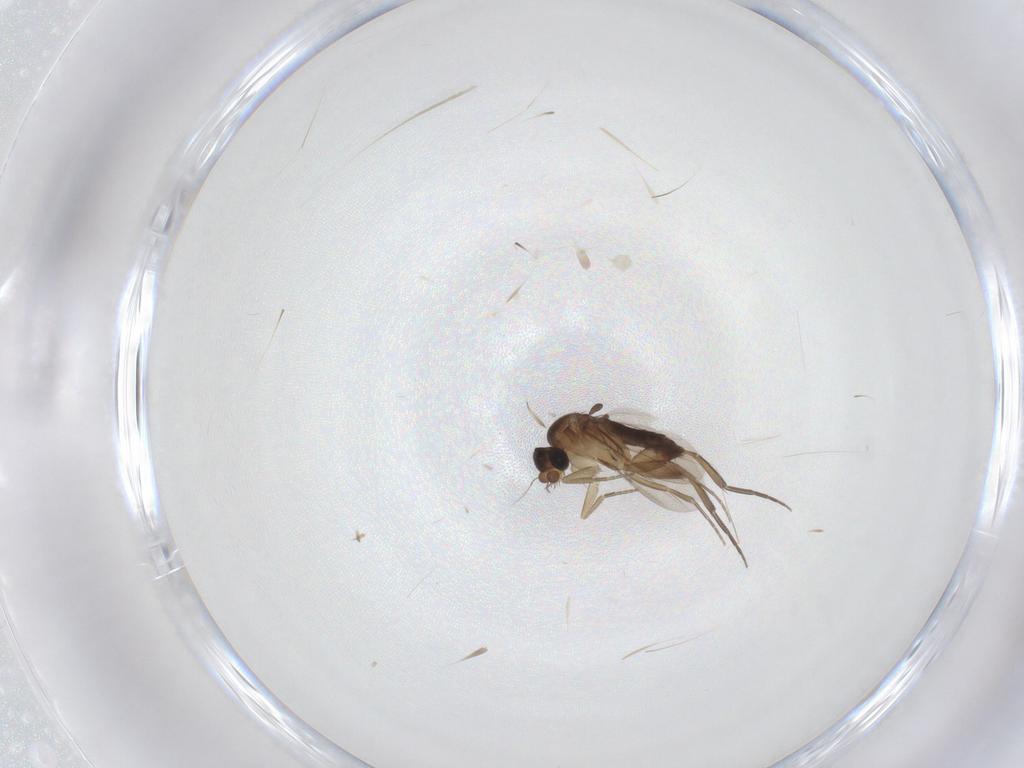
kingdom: Animalia
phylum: Arthropoda
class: Insecta
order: Diptera
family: Phoridae
